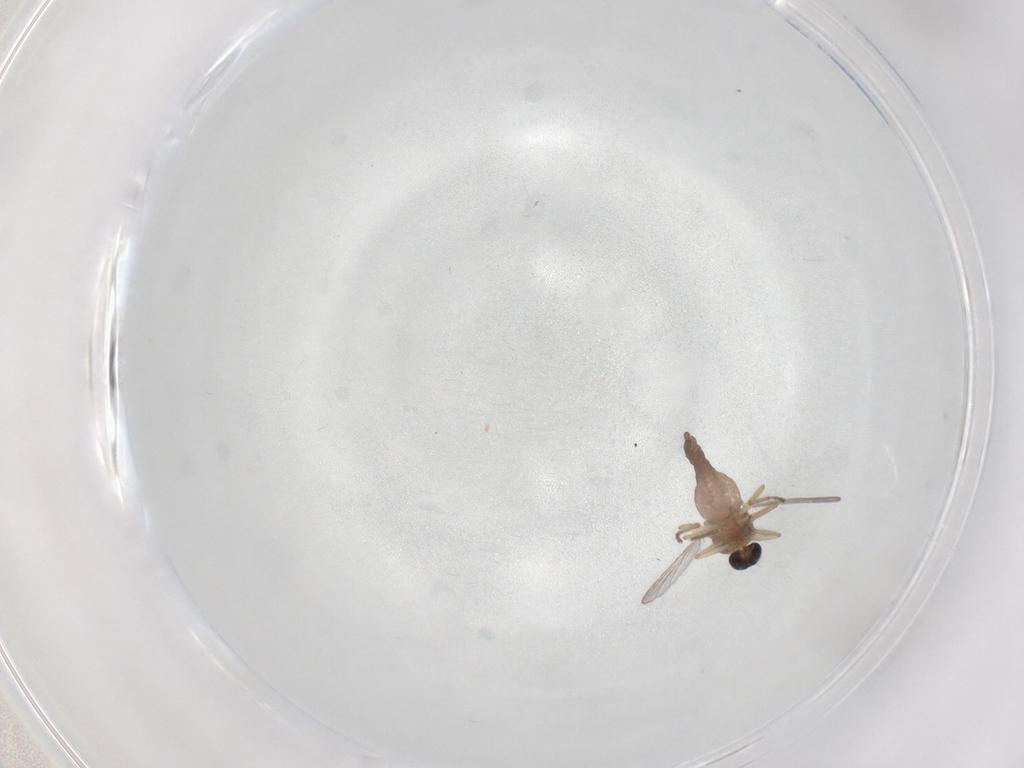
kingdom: Animalia
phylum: Arthropoda
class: Insecta
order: Diptera
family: Ceratopogonidae
